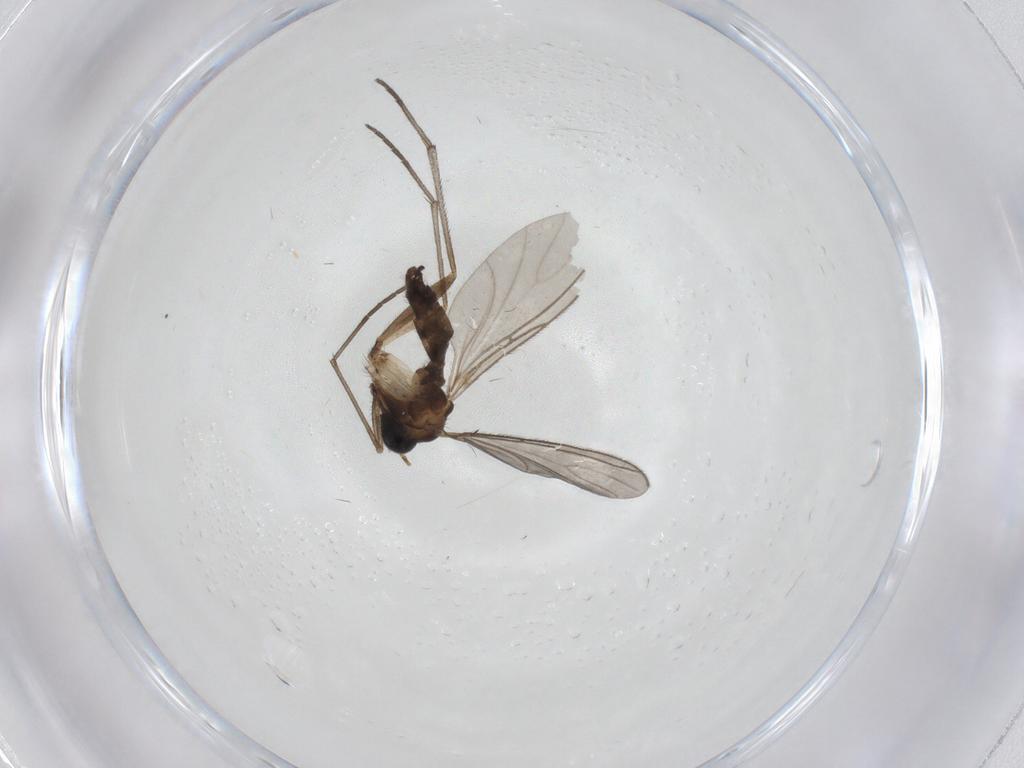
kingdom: Animalia
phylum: Arthropoda
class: Insecta
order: Diptera
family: Sciaridae
